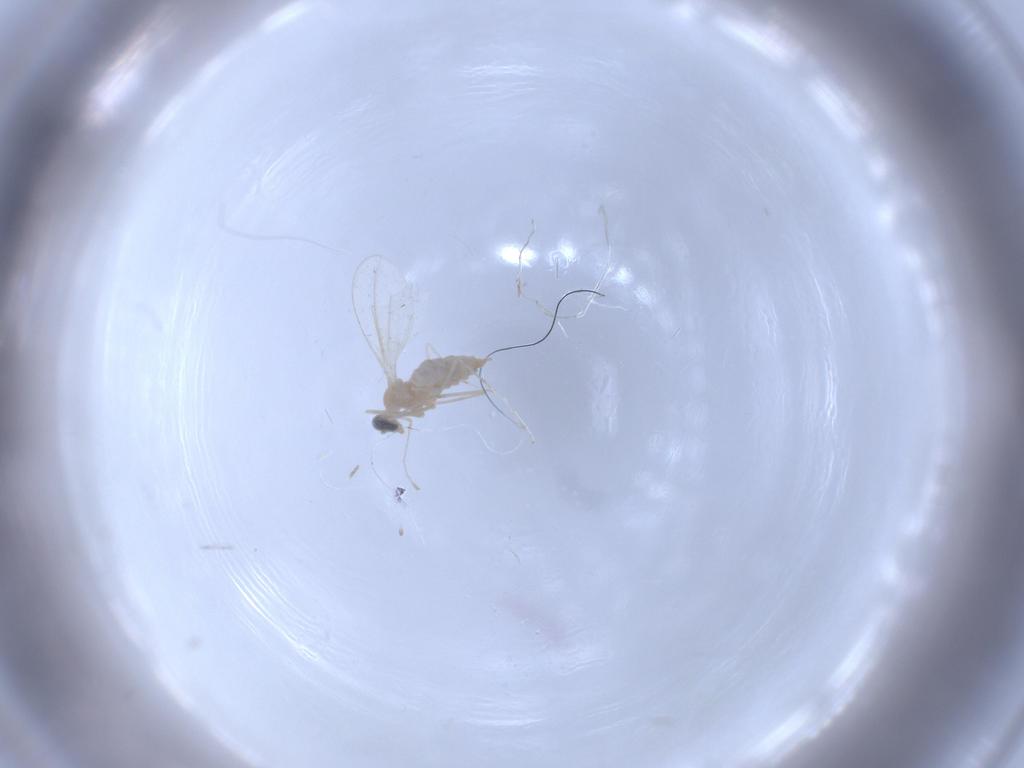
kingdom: Animalia
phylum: Arthropoda
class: Insecta
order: Diptera
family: Cecidomyiidae
